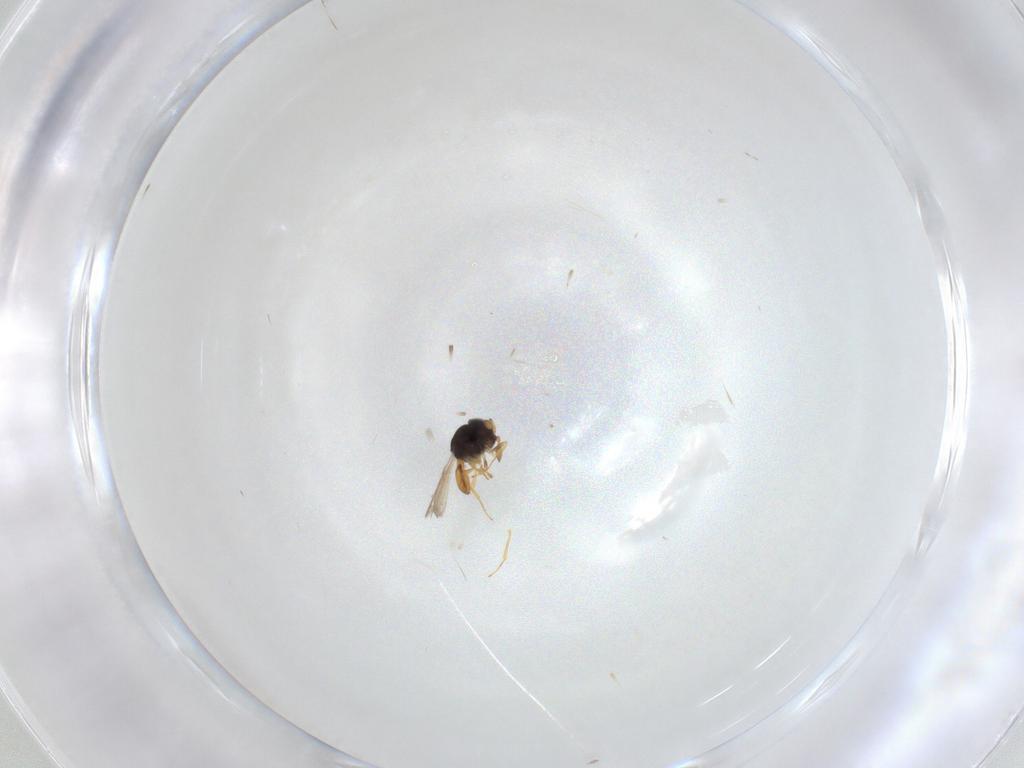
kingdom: Animalia
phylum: Arthropoda
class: Insecta
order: Hymenoptera
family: Scelionidae
